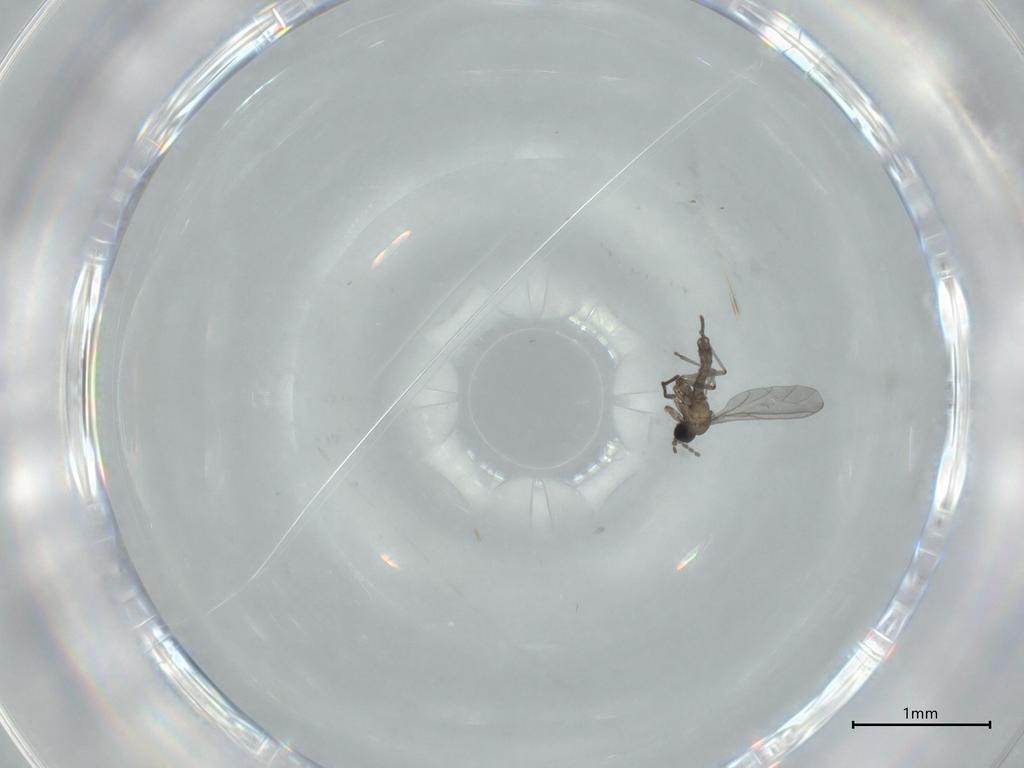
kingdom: Animalia
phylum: Arthropoda
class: Insecta
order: Diptera
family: Sciaridae
